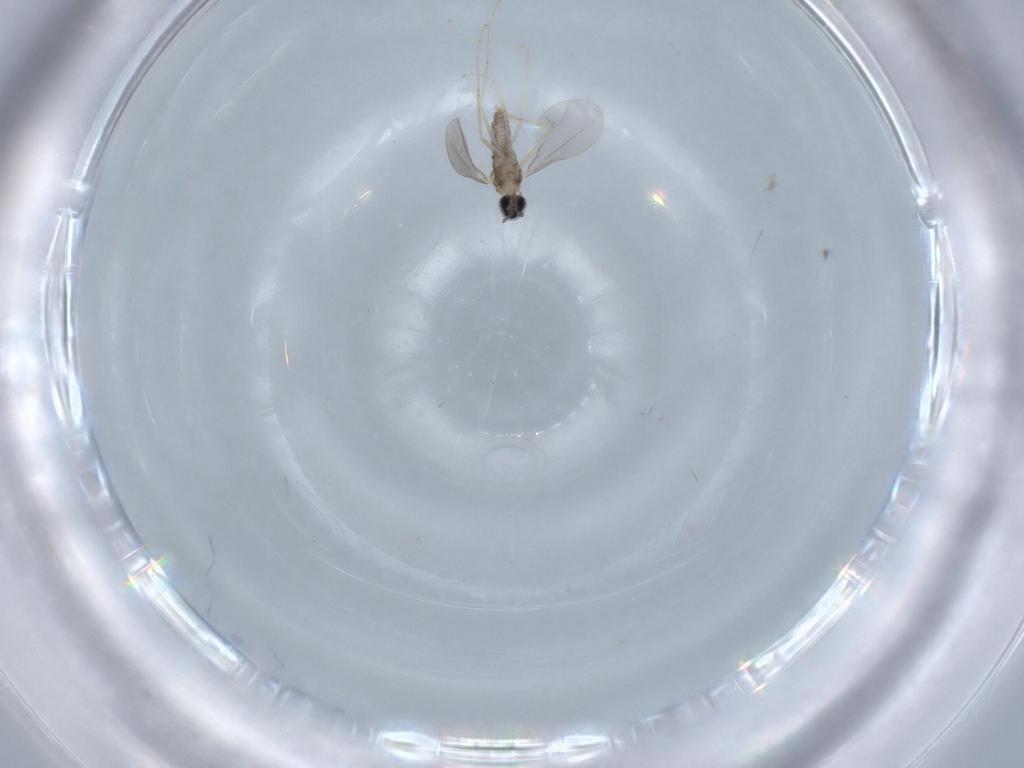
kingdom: Animalia
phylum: Arthropoda
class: Insecta
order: Diptera
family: Cecidomyiidae
